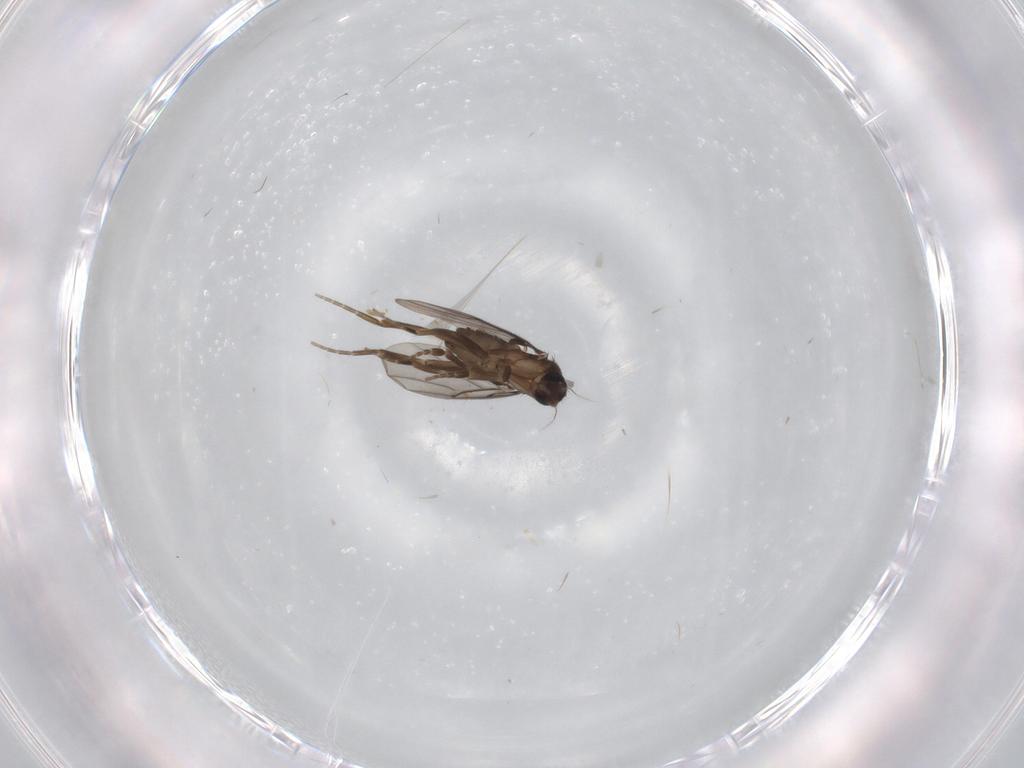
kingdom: Animalia
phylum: Arthropoda
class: Insecta
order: Diptera
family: Phoridae
